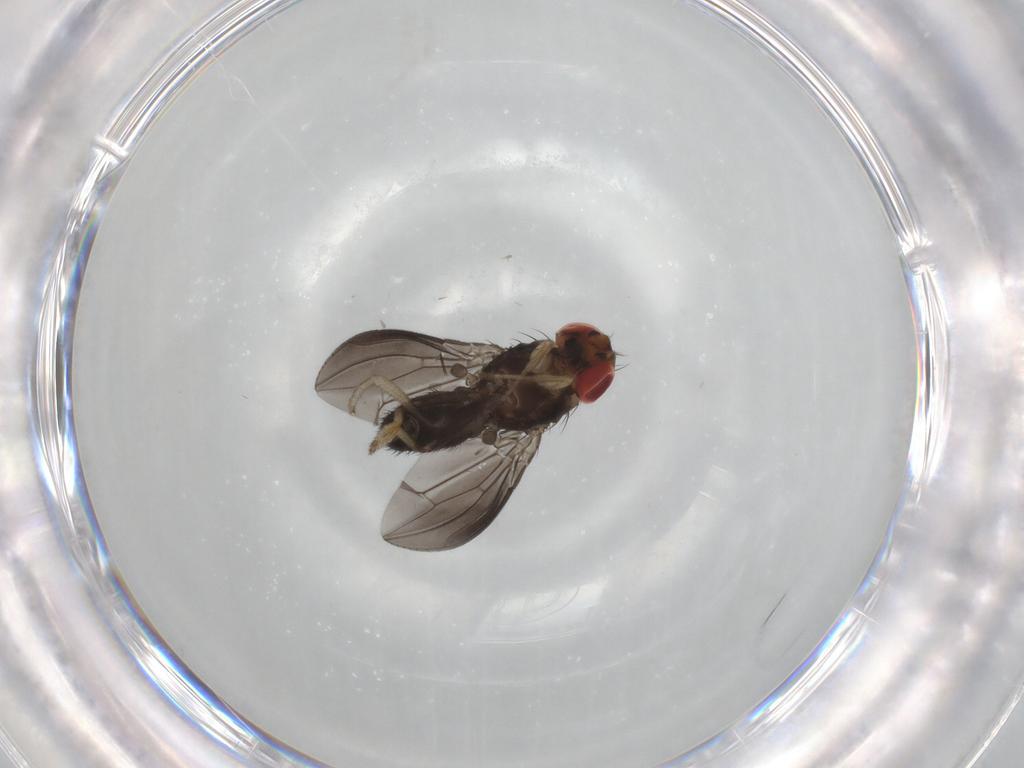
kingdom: Animalia
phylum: Arthropoda
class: Insecta
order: Diptera
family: Drosophilidae
